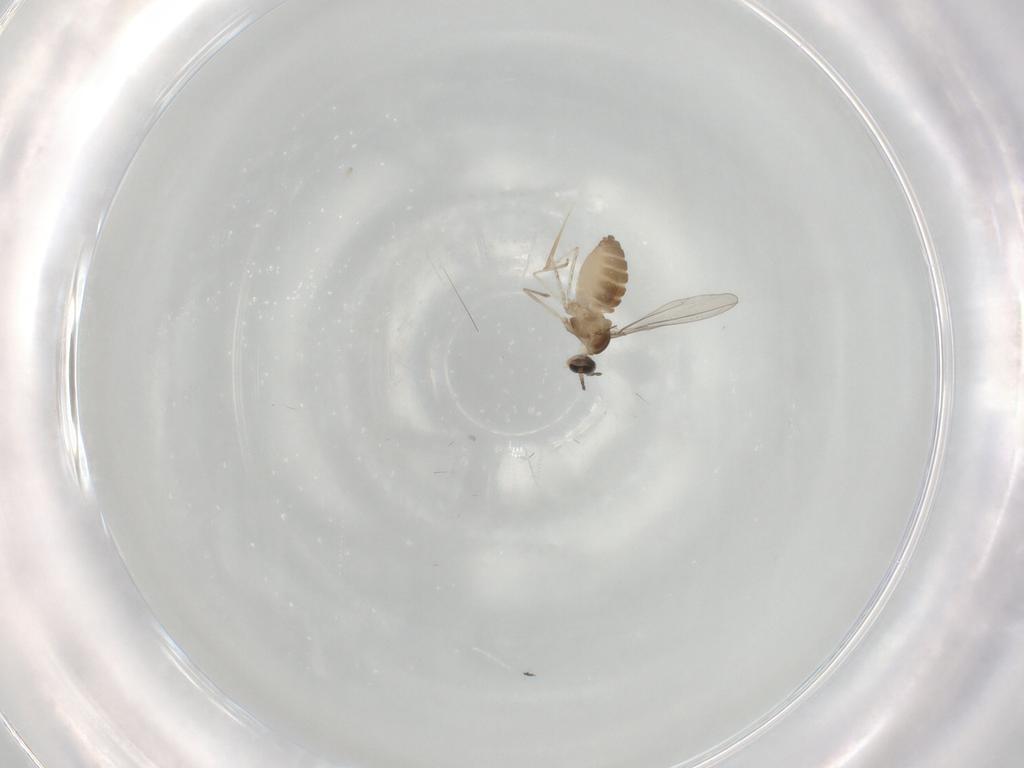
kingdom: Animalia
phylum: Arthropoda
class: Insecta
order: Diptera
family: Cecidomyiidae
